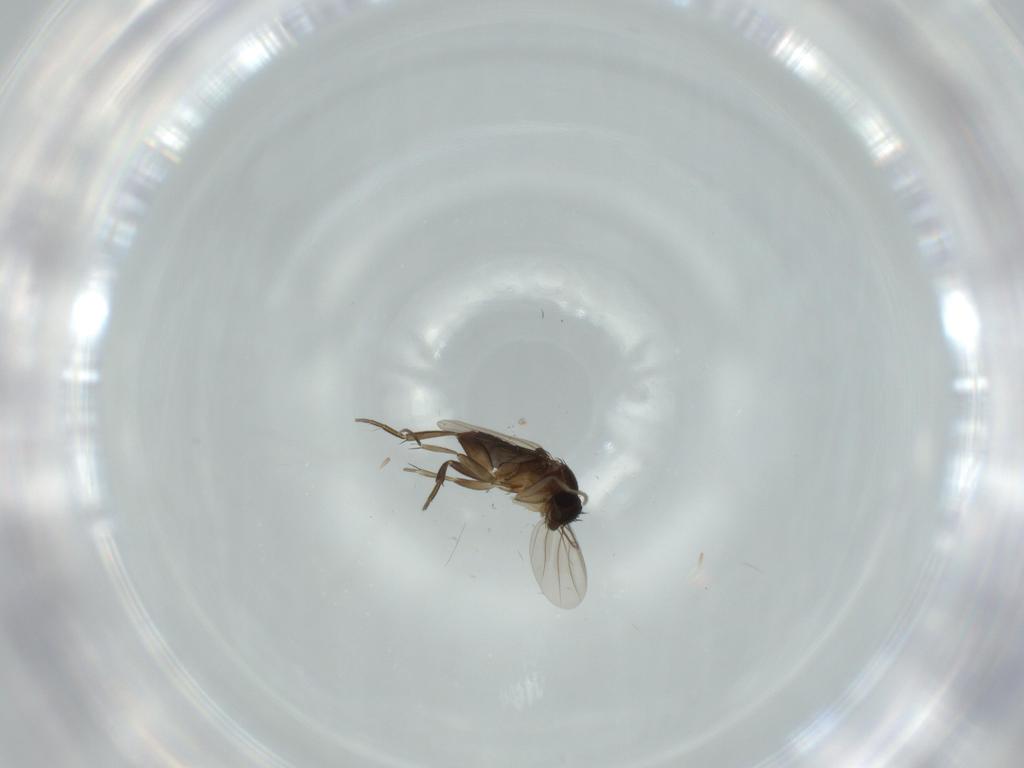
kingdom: Animalia
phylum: Arthropoda
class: Insecta
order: Diptera
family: Phoridae
